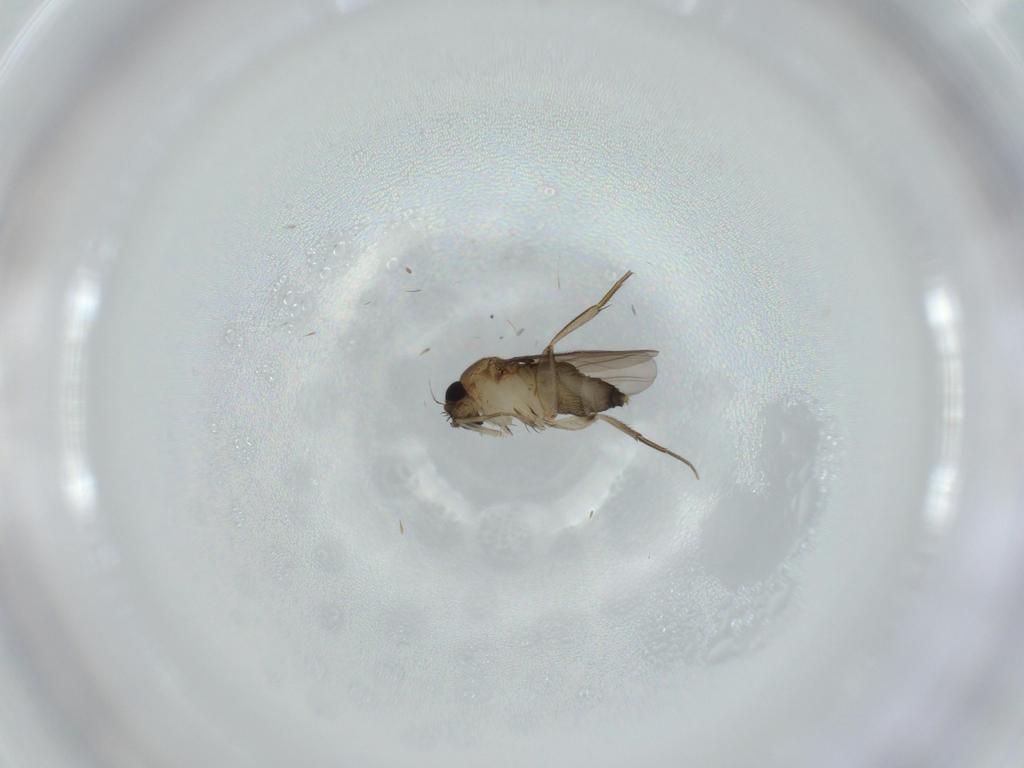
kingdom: Animalia
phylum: Arthropoda
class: Insecta
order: Diptera
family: Phoridae
